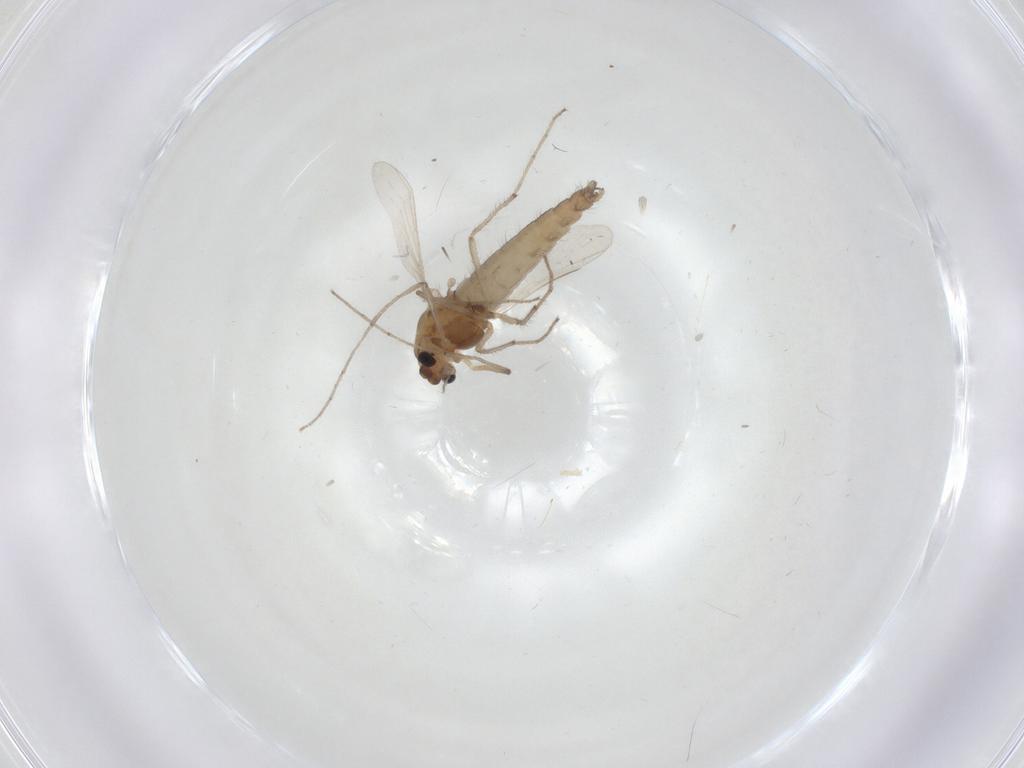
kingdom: Animalia
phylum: Arthropoda
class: Insecta
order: Diptera
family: Chironomidae
